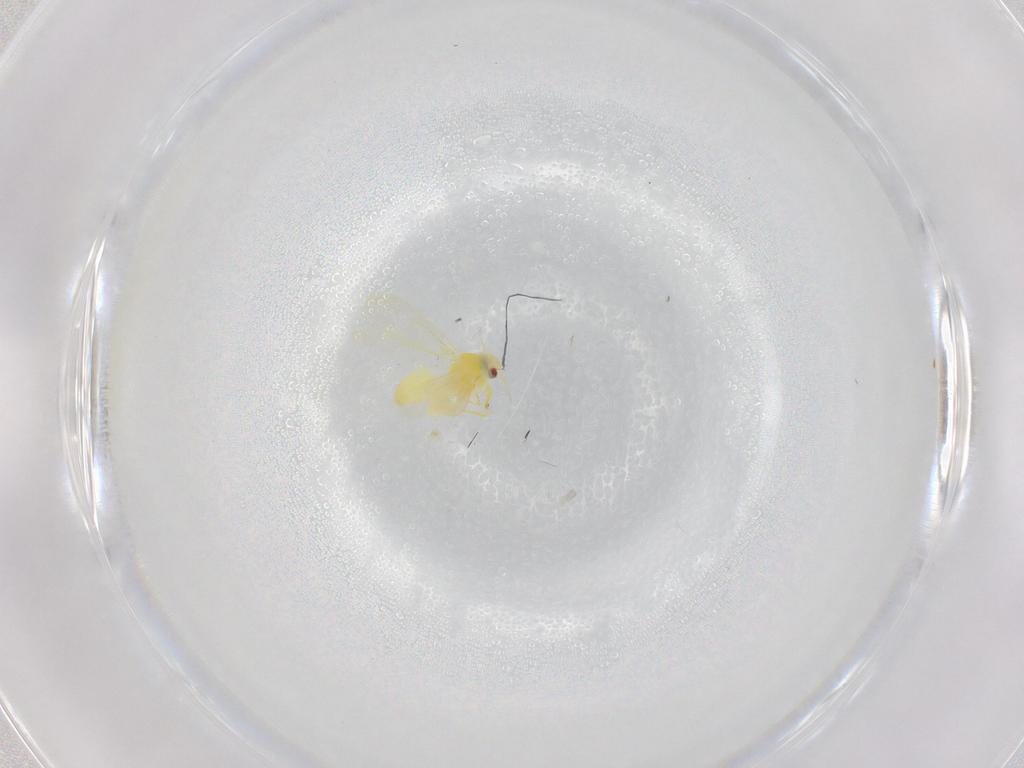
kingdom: Animalia
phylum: Arthropoda
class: Insecta
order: Hemiptera
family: Aleyrodidae
